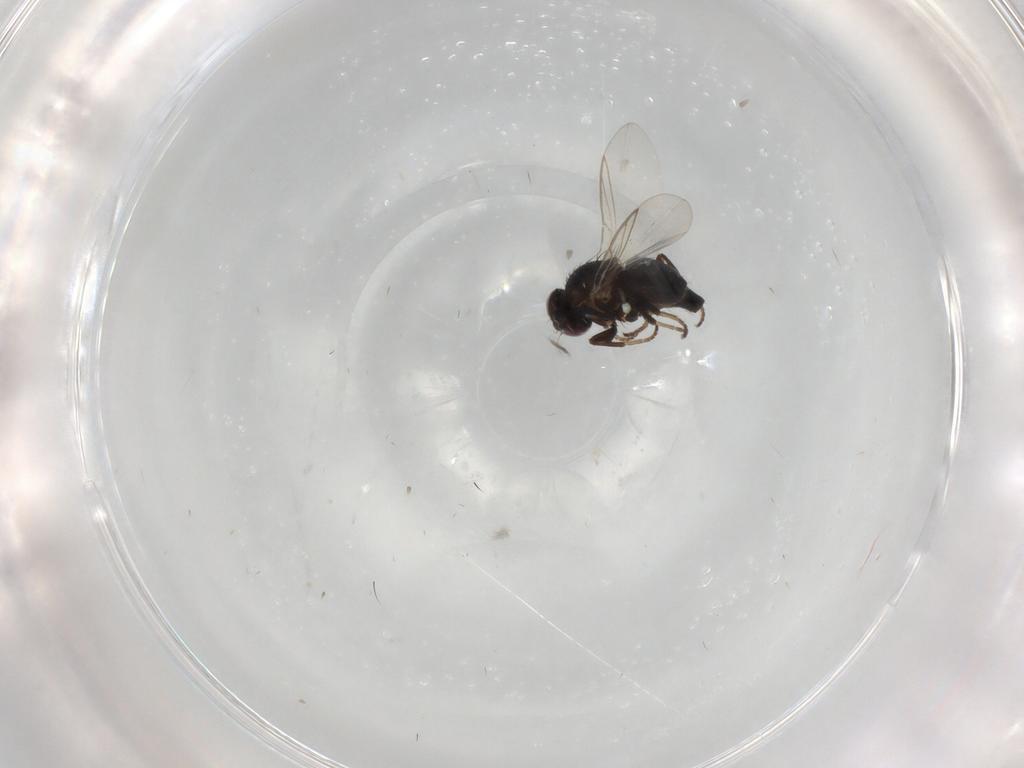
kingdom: Animalia
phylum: Arthropoda
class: Insecta
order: Diptera
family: Agromyzidae
